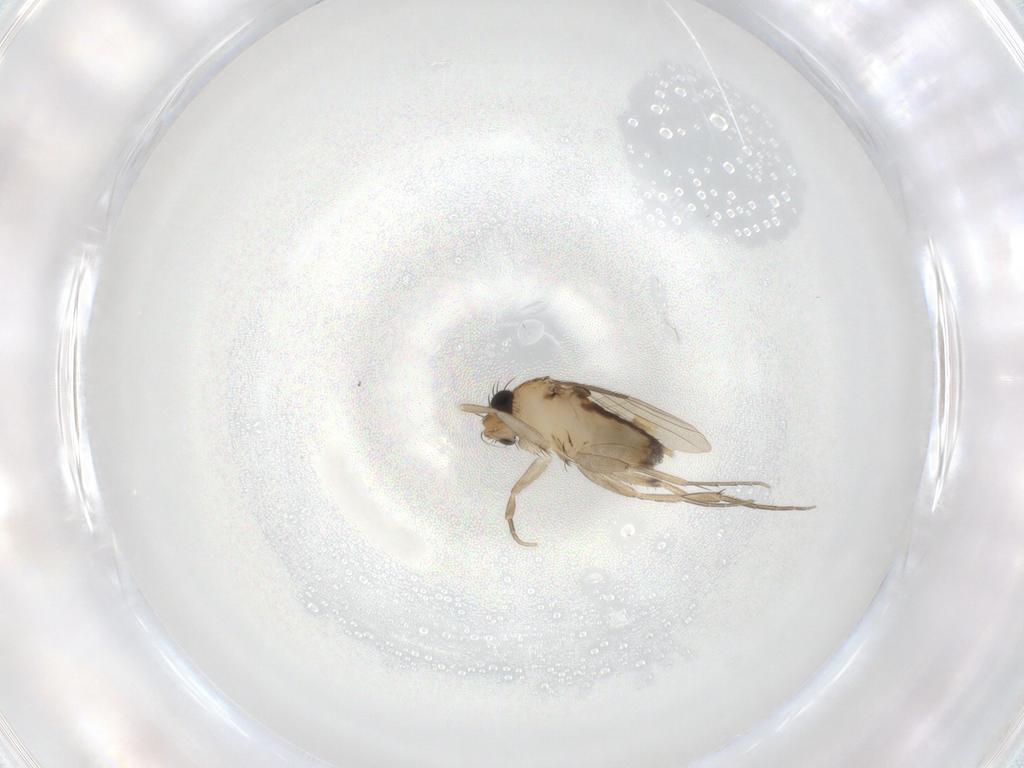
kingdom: Animalia
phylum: Arthropoda
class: Insecta
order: Diptera
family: Phoridae
